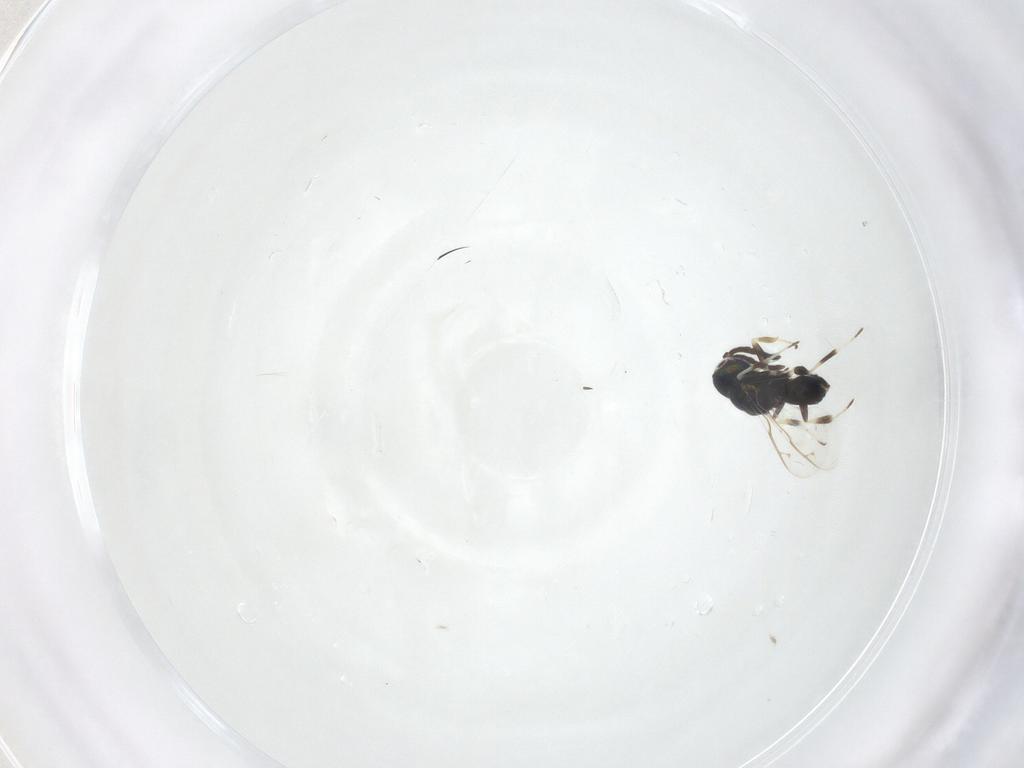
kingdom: Animalia
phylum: Arthropoda
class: Insecta
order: Hymenoptera
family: Eupelmidae
